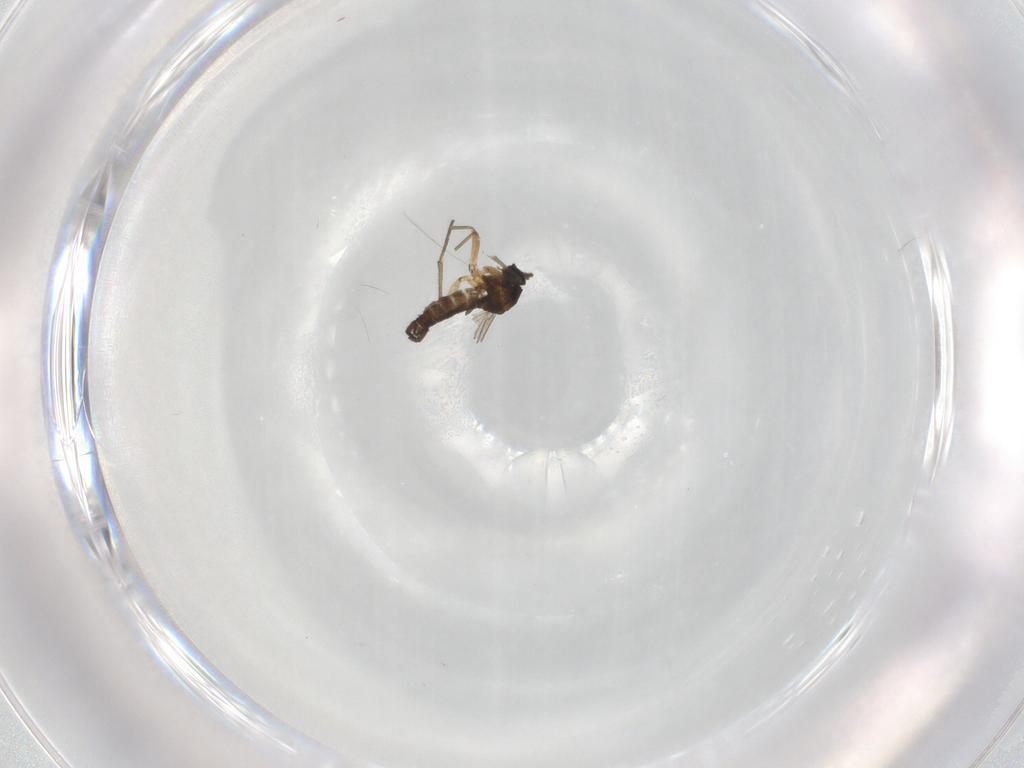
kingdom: Animalia
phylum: Arthropoda
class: Insecta
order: Diptera
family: Sciaridae
